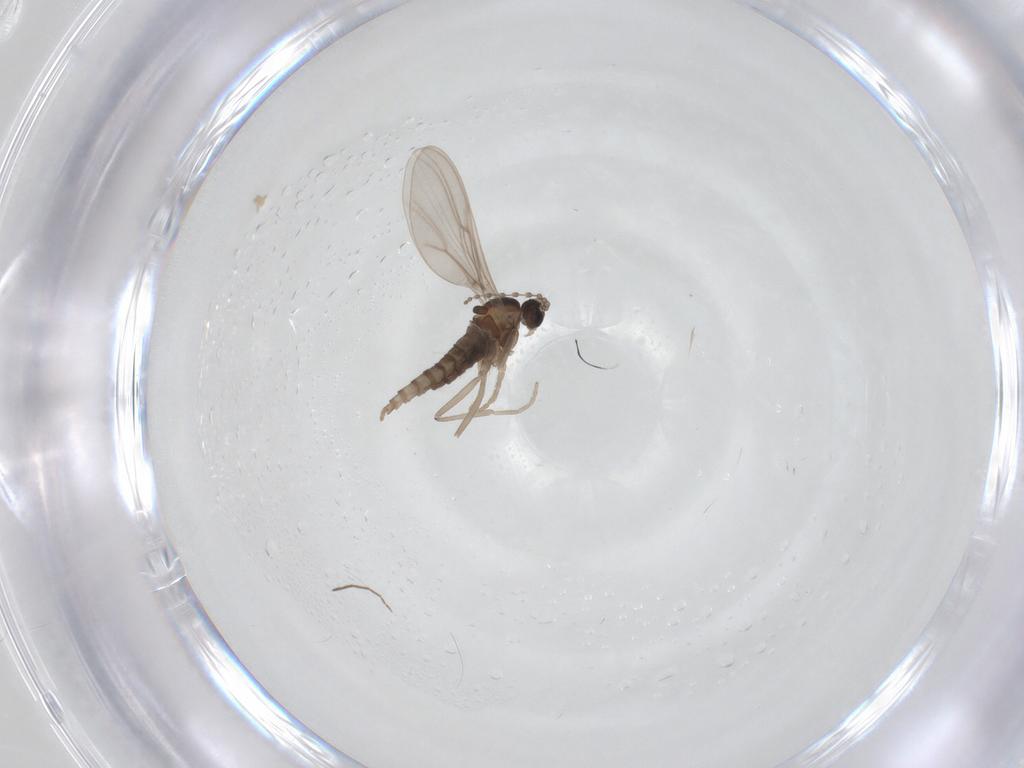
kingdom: Animalia
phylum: Arthropoda
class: Insecta
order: Diptera
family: Cecidomyiidae
